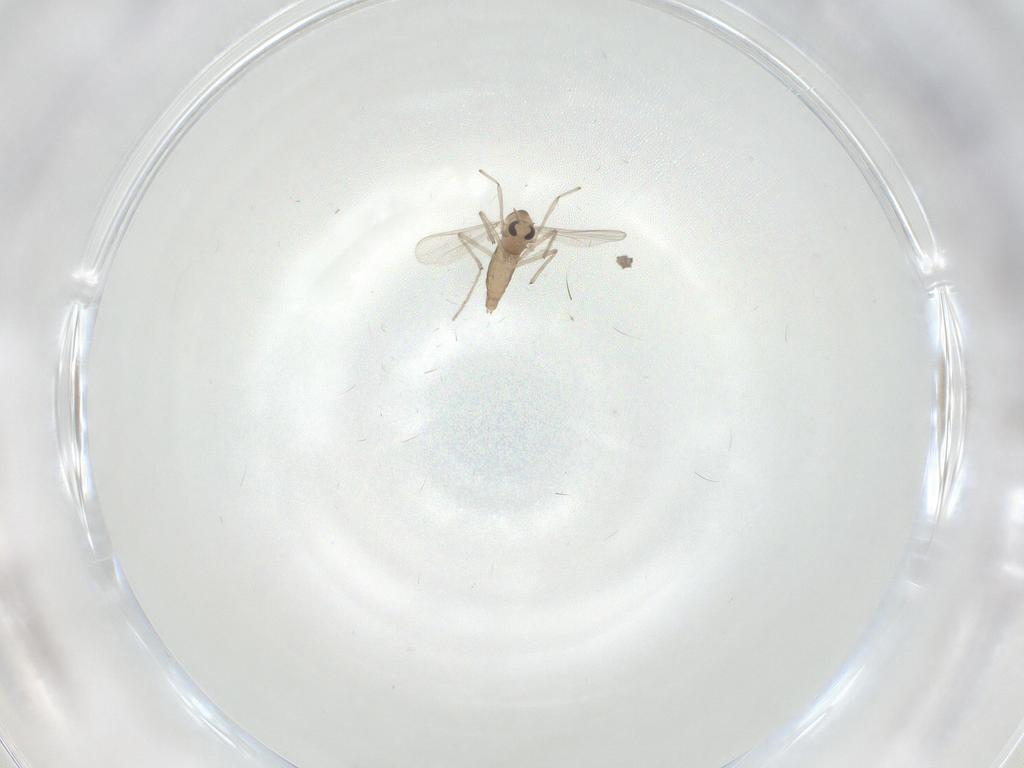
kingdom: Animalia
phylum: Arthropoda
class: Insecta
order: Diptera
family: Chironomidae
